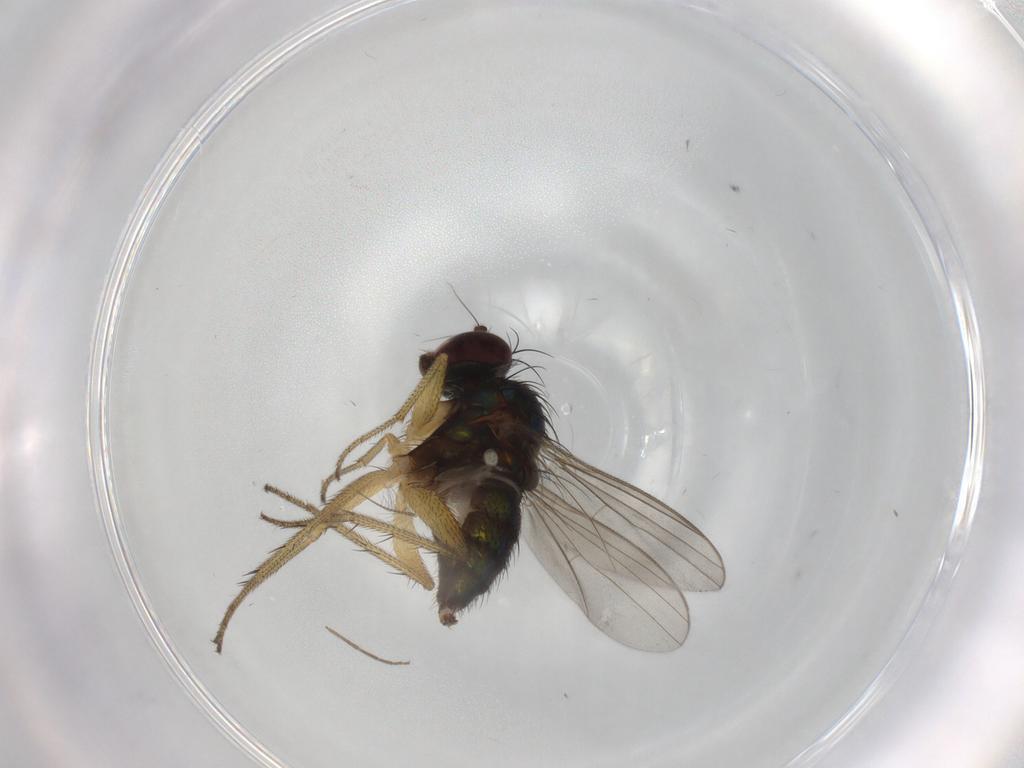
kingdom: Animalia
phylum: Arthropoda
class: Insecta
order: Diptera
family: Dolichopodidae
